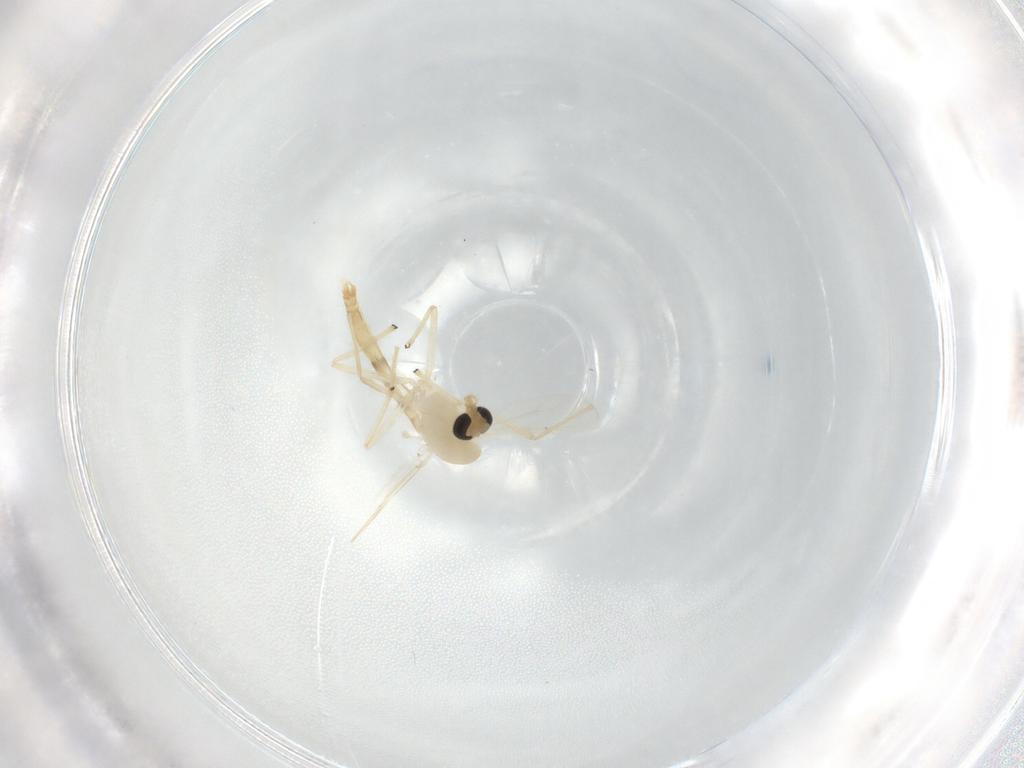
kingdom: Animalia
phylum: Arthropoda
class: Insecta
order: Diptera
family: Chironomidae
